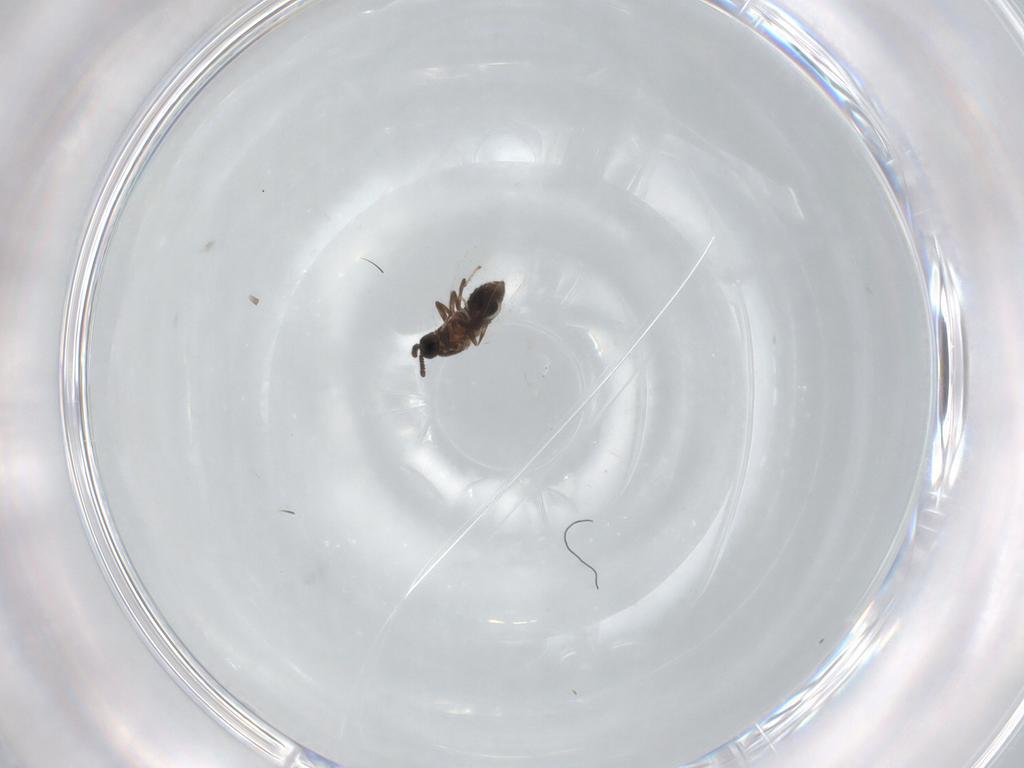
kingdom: Animalia
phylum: Arthropoda
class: Insecta
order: Diptera
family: Scatopsidae
